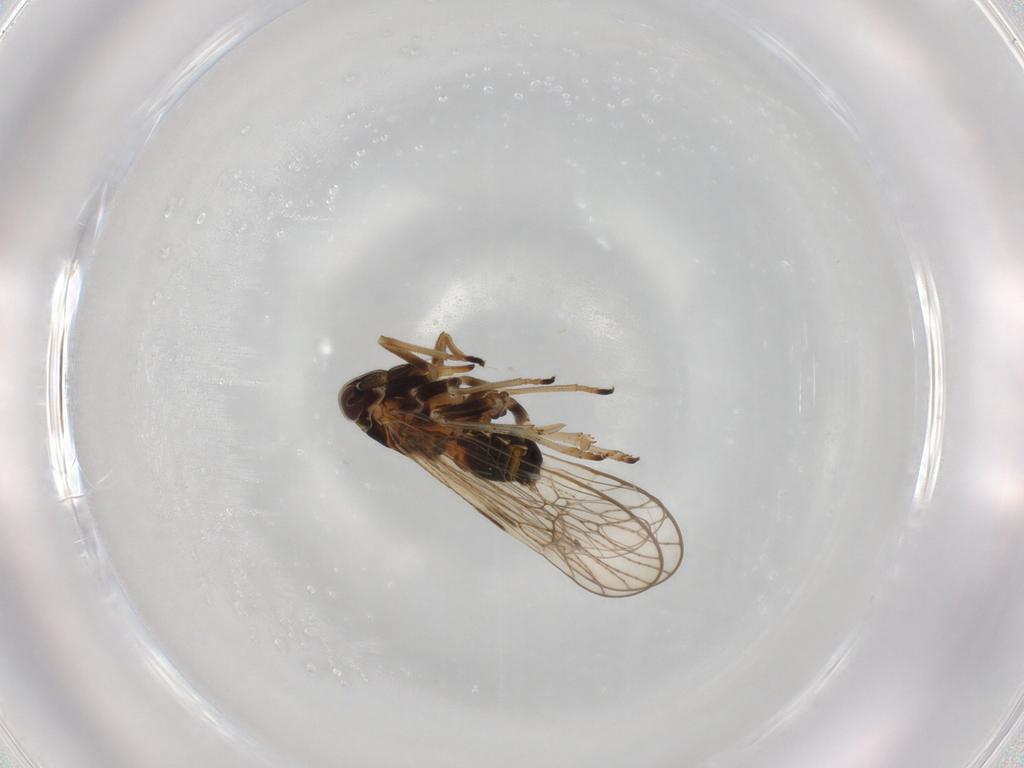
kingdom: Animalia
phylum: Arthropoda
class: Insecta
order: Hemiptera
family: Delphacidae
